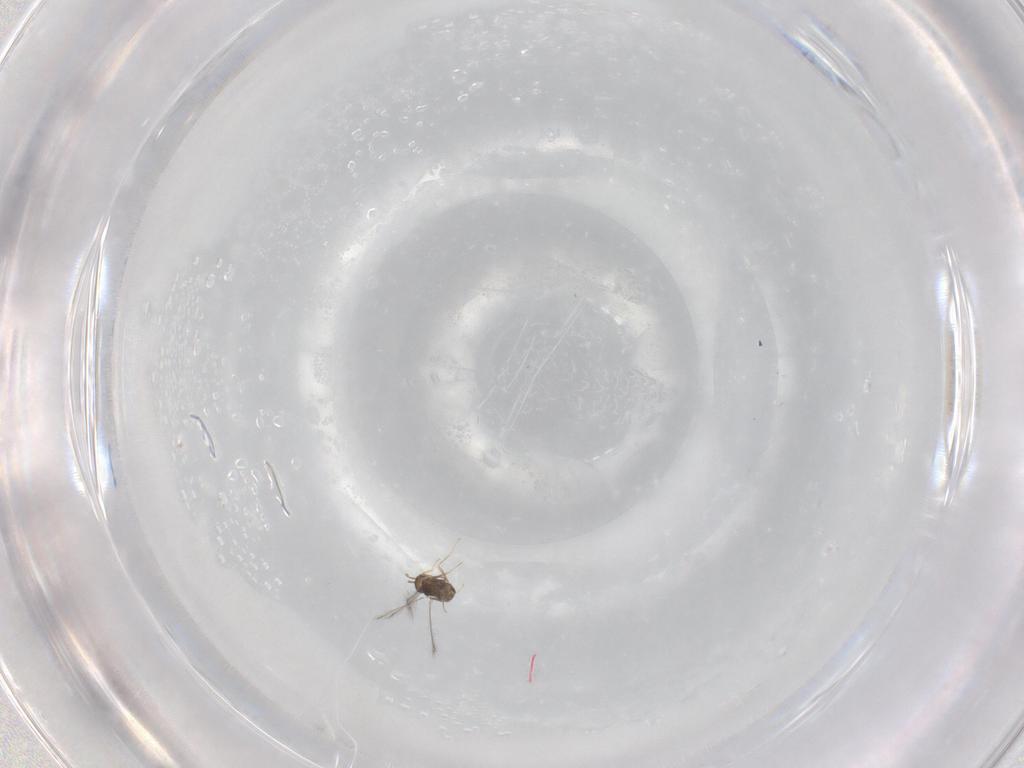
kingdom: Animalia
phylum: Arthropoda
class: Insecta
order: Hymenoptera
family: Mymaridae
